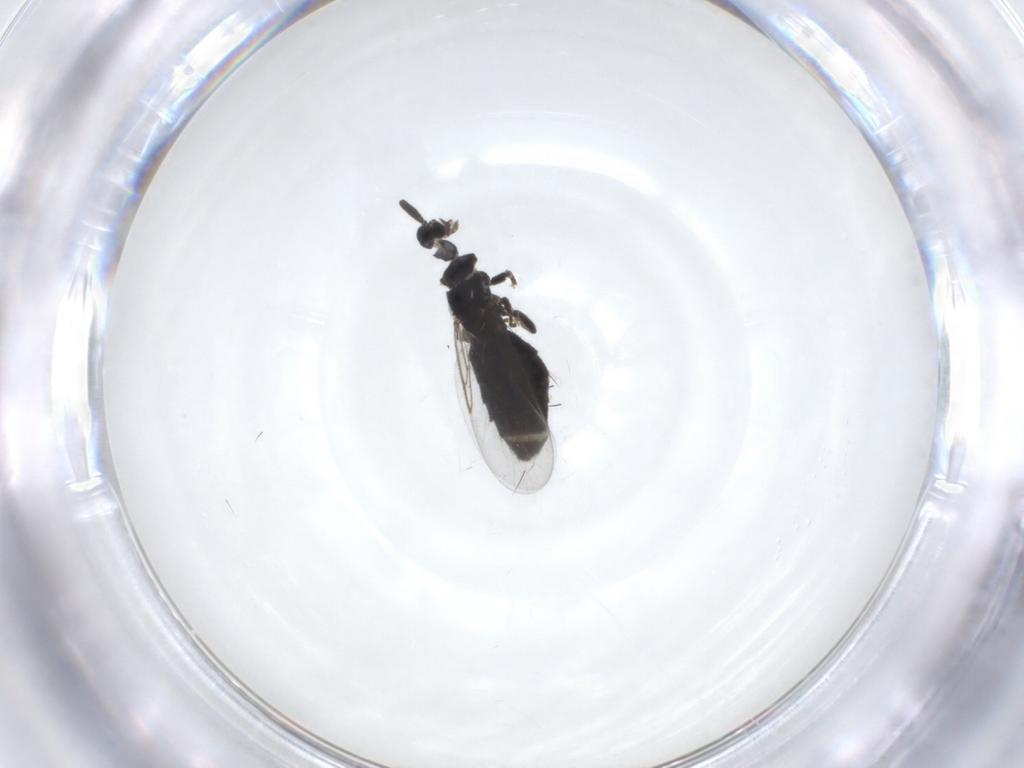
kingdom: Animalia
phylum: Arthropoda
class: Insecta
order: Diptera
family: Scatopsidae
